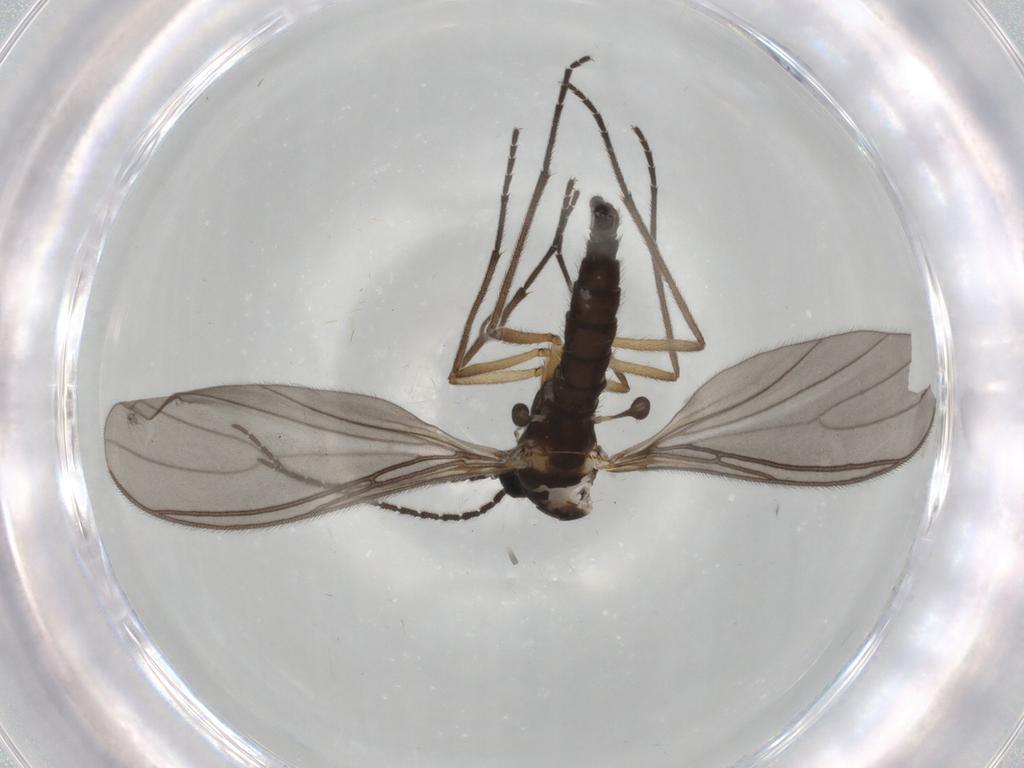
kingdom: Animalia
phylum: Arthropoda
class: Insecta
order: Diptera
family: Sciaridae
